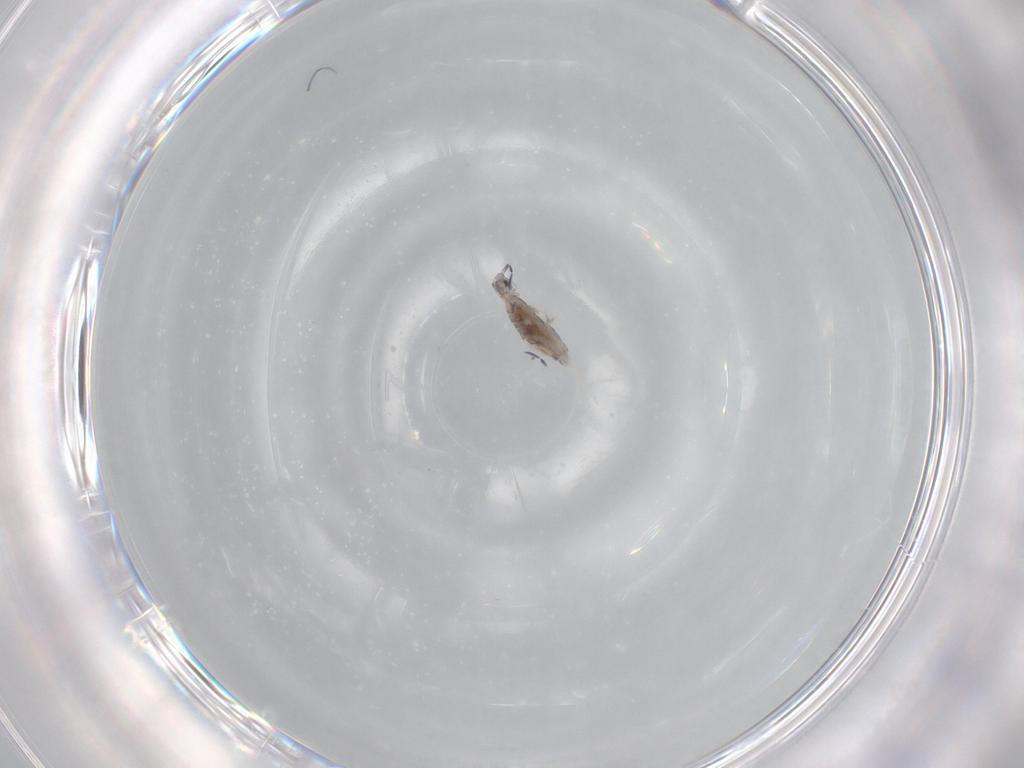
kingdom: Animalia
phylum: Arthropoda
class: Collembola
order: Entomobryomorpha
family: Entomobryidae
